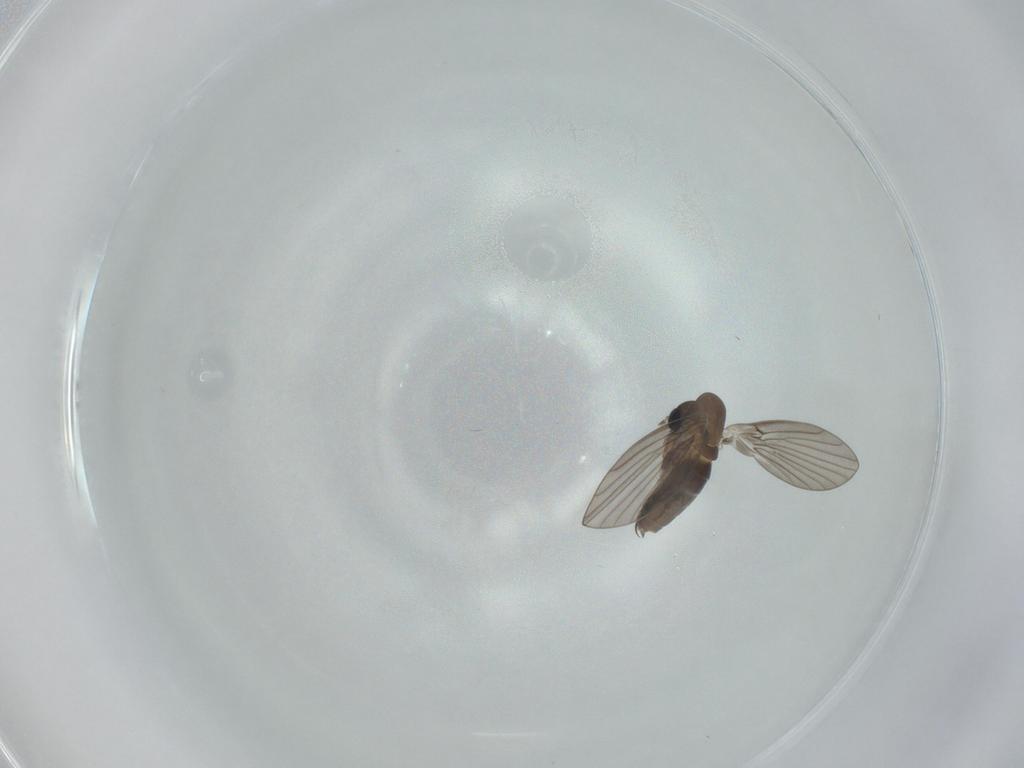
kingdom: Animalia
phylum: Arthropoda
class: Insecta
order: Diptera
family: Psychodidae
